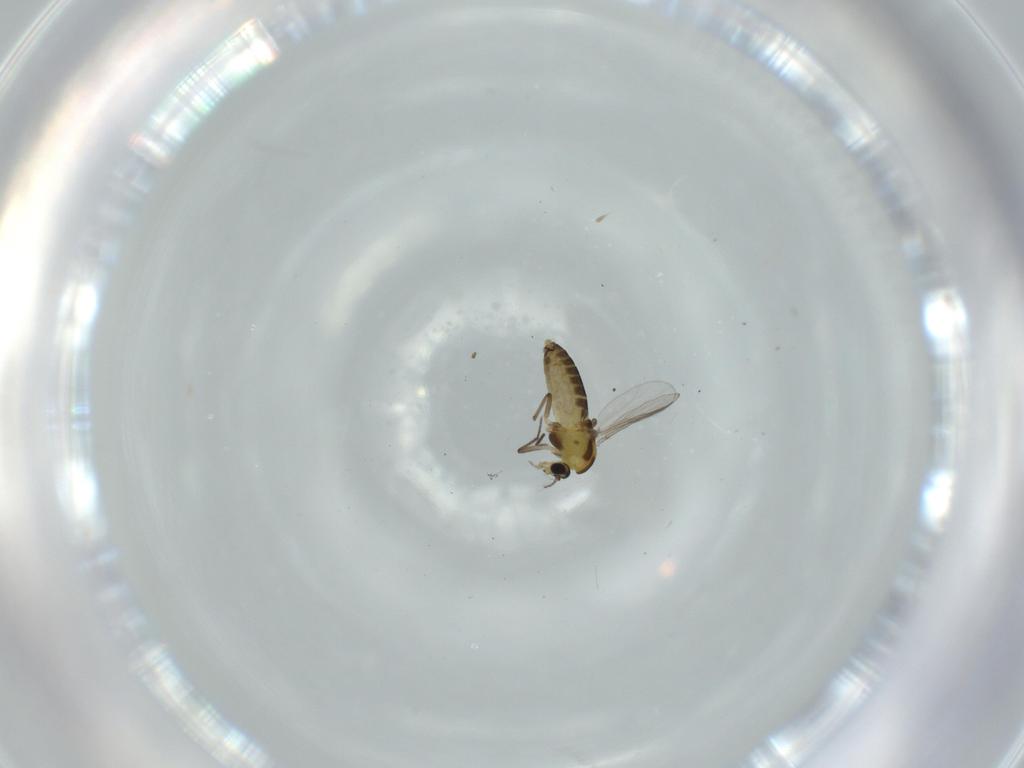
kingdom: Animalia
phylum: Arthropoda
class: Insecta
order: Diptera
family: Chironomidae
